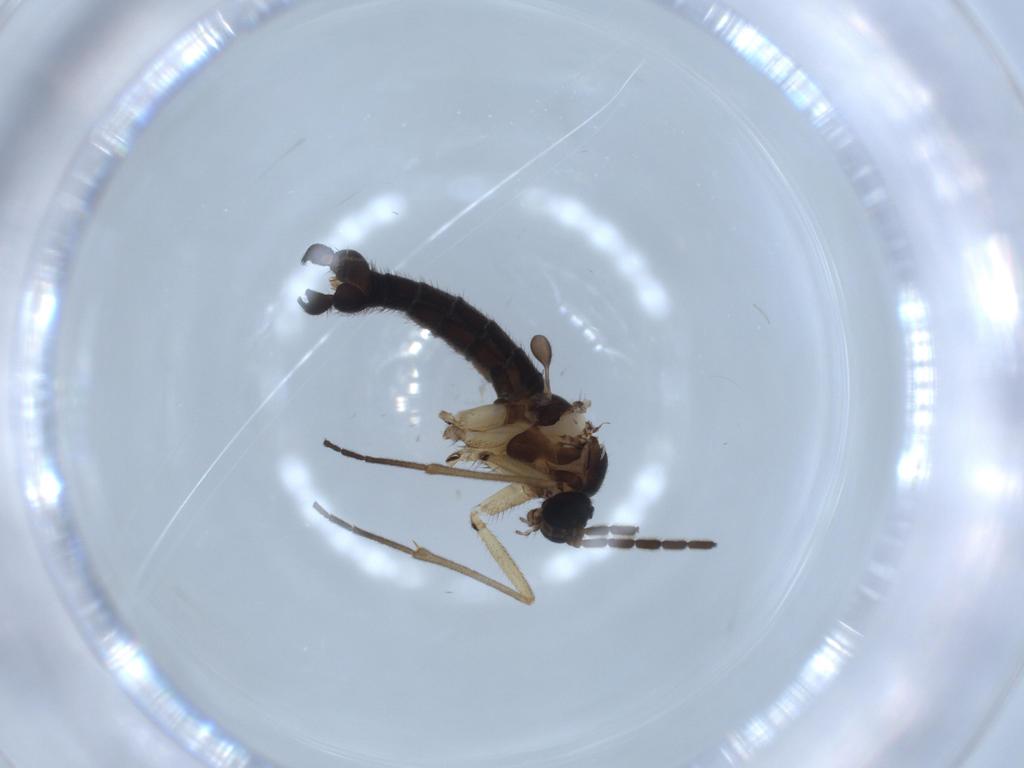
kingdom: Animalia
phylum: Arthropoda
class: Insecta
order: Diptera
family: Sciaridae
